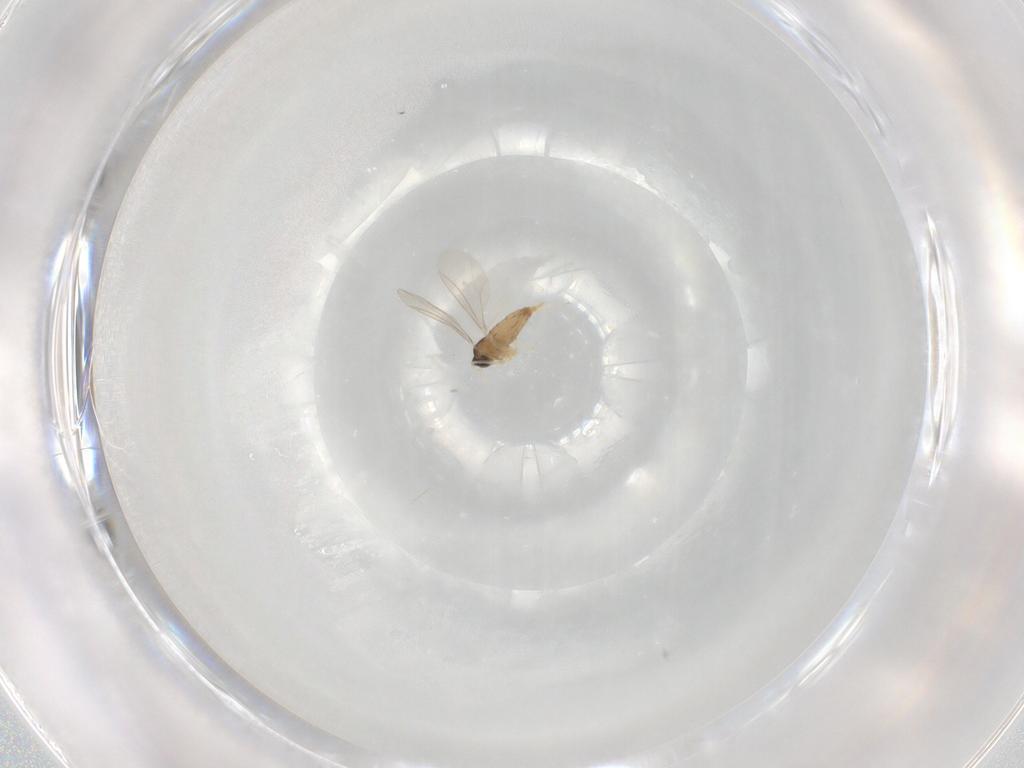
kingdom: Animalia
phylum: Arthropoda
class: Insecta
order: Diptera
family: Cecidomyiidae
